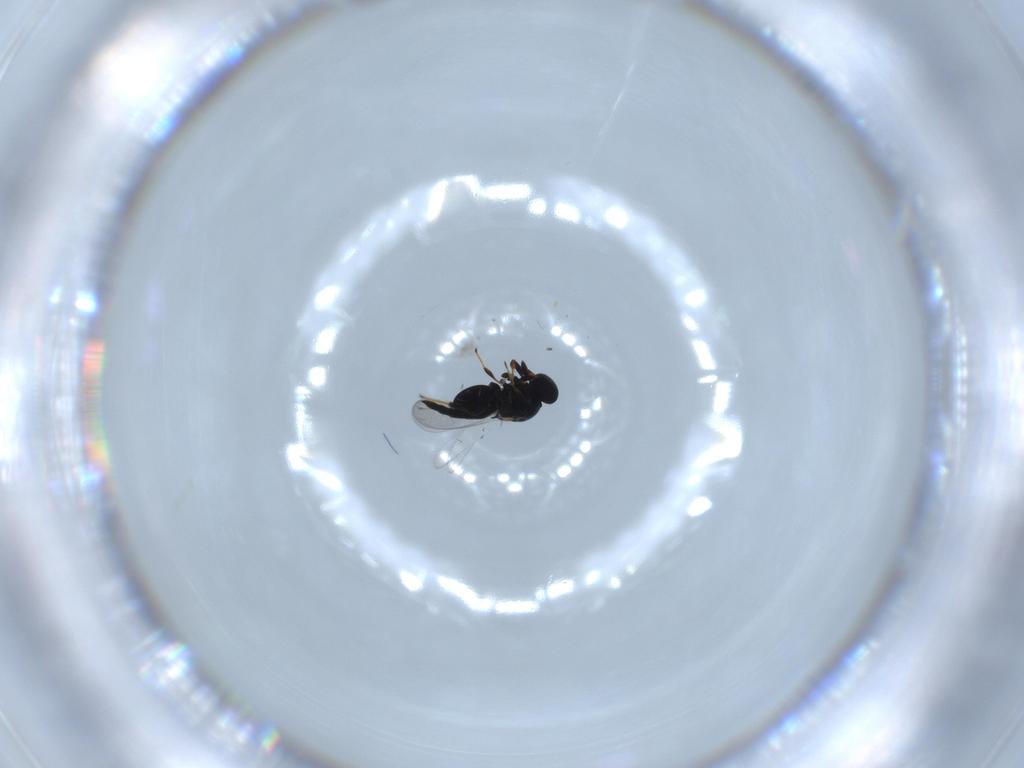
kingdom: Animalia
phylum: Arthropoda
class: Insecta
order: Hymenoptera
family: Platygastridae
